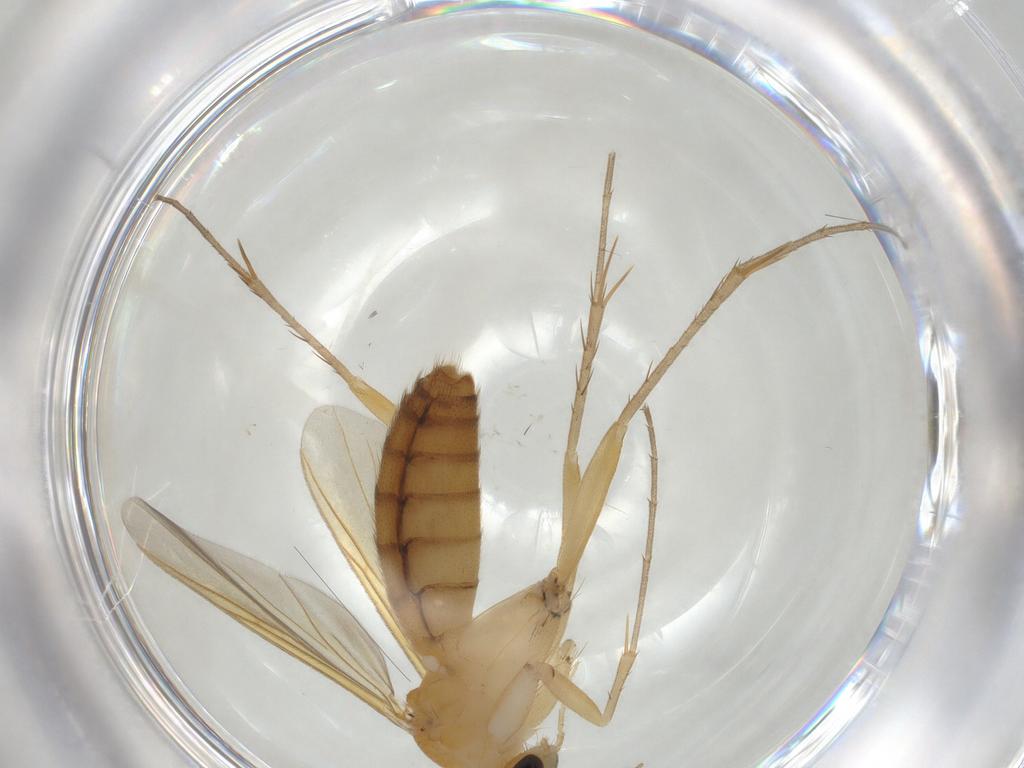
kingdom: Animalia
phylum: Arthropoda
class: Insecta
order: Diptera
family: Mycetophilidae
